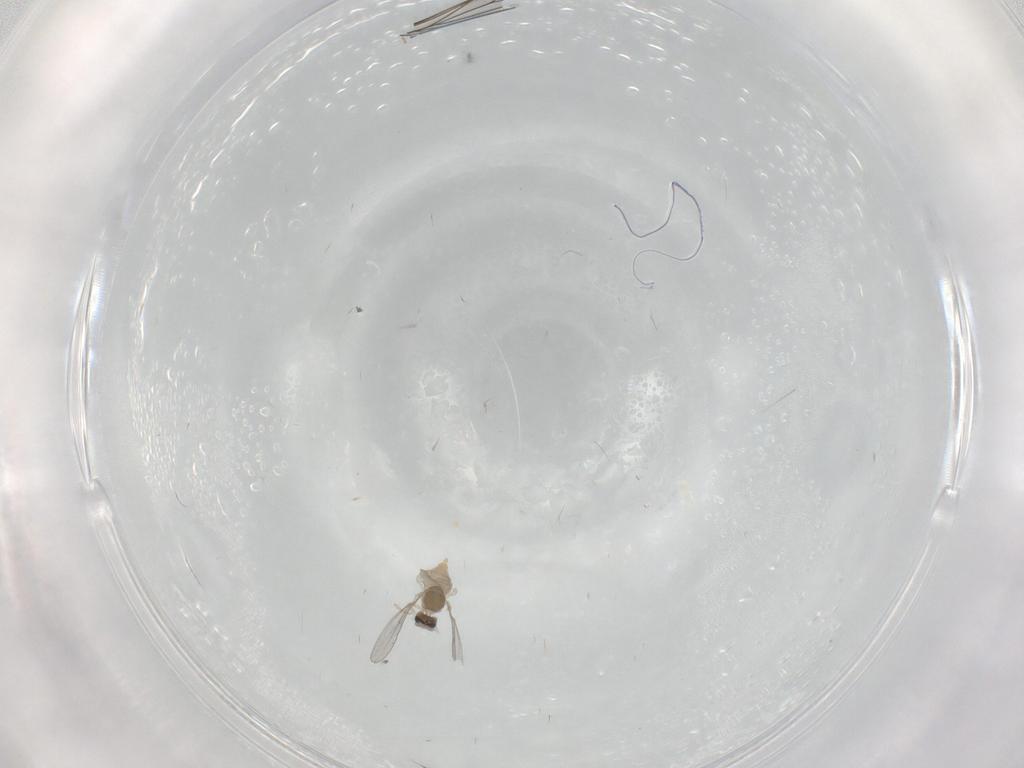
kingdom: Animalia
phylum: Arthropoda
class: Insecta
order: Diptera
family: Cecidomyiidae
